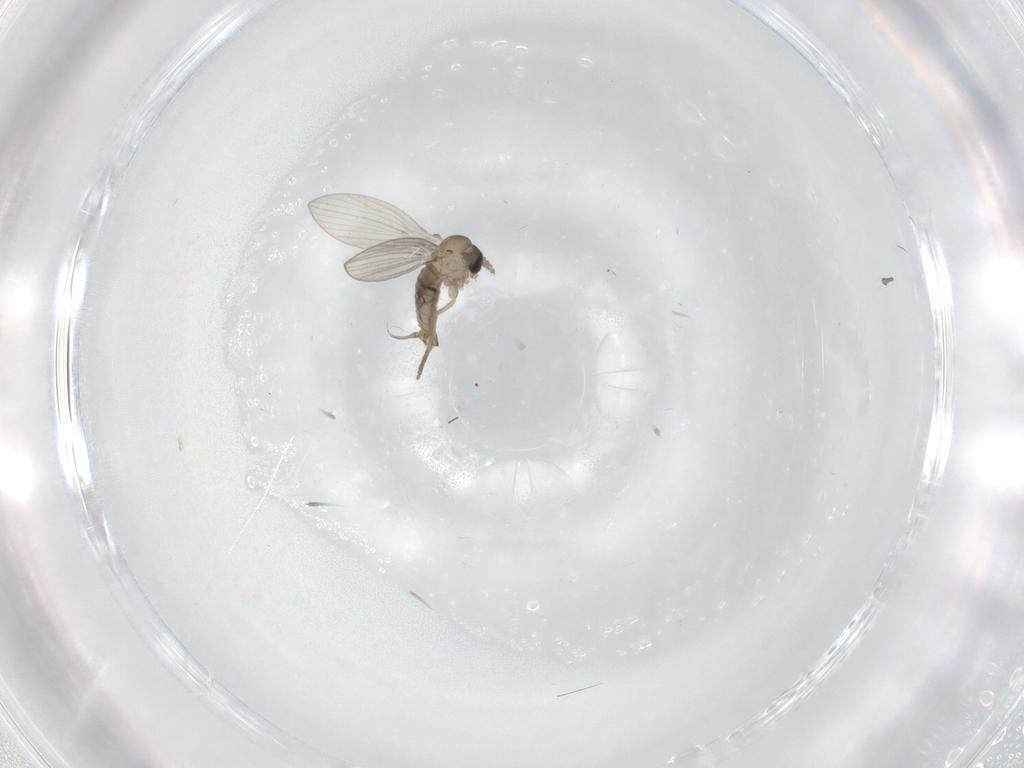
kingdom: Animalia
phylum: Arthropoda
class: Insecta
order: Diptera
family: Psychodidae
